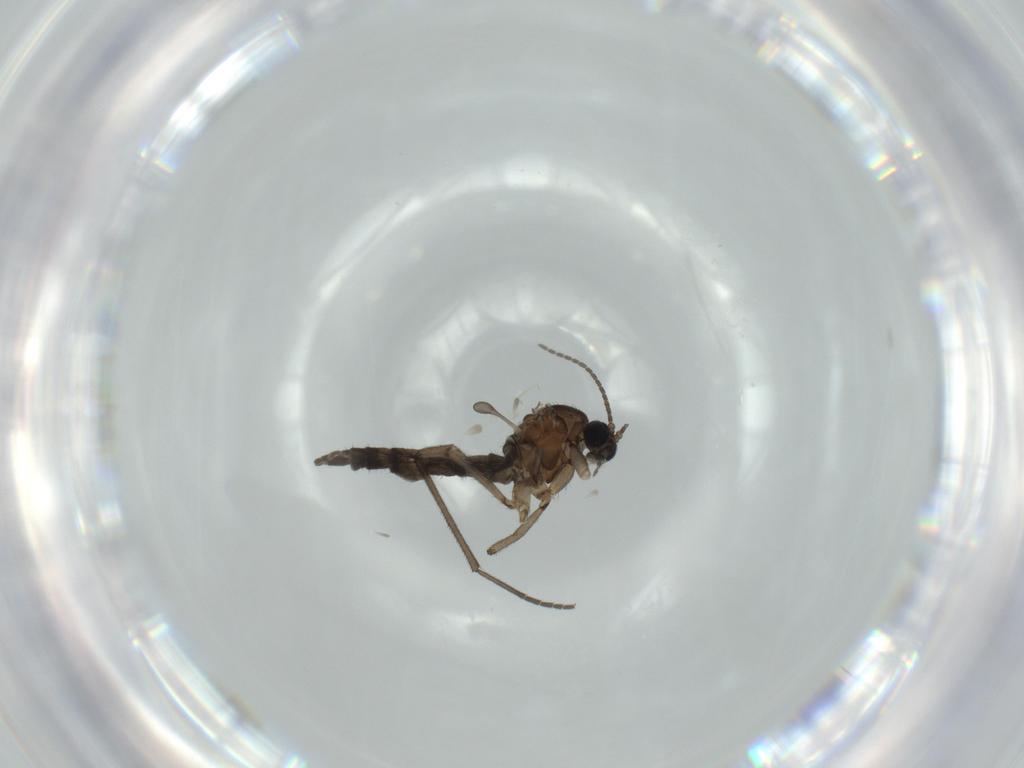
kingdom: Animalia
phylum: Arthropoda
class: Insecta
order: Diptera
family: Sciaridae
